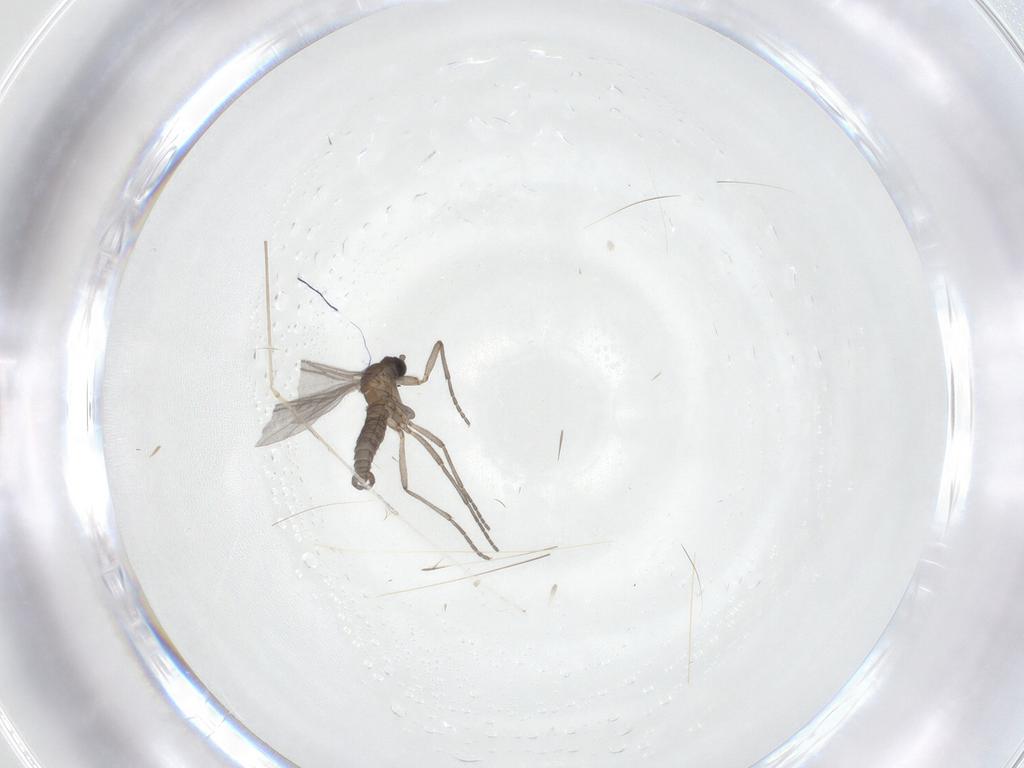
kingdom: Animalia
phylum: Arthropoda
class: Insecta
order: Diptera
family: Sciaridae
